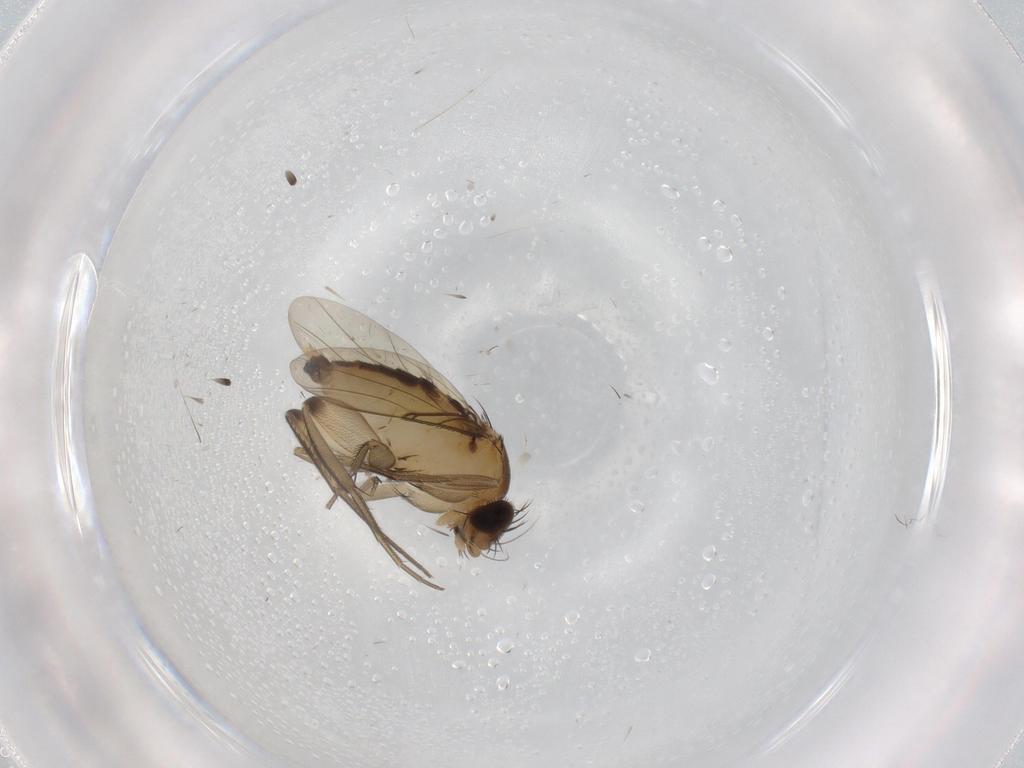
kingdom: Animalia
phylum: Arthropoda
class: Insecta
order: Diptera
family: Phoridae
